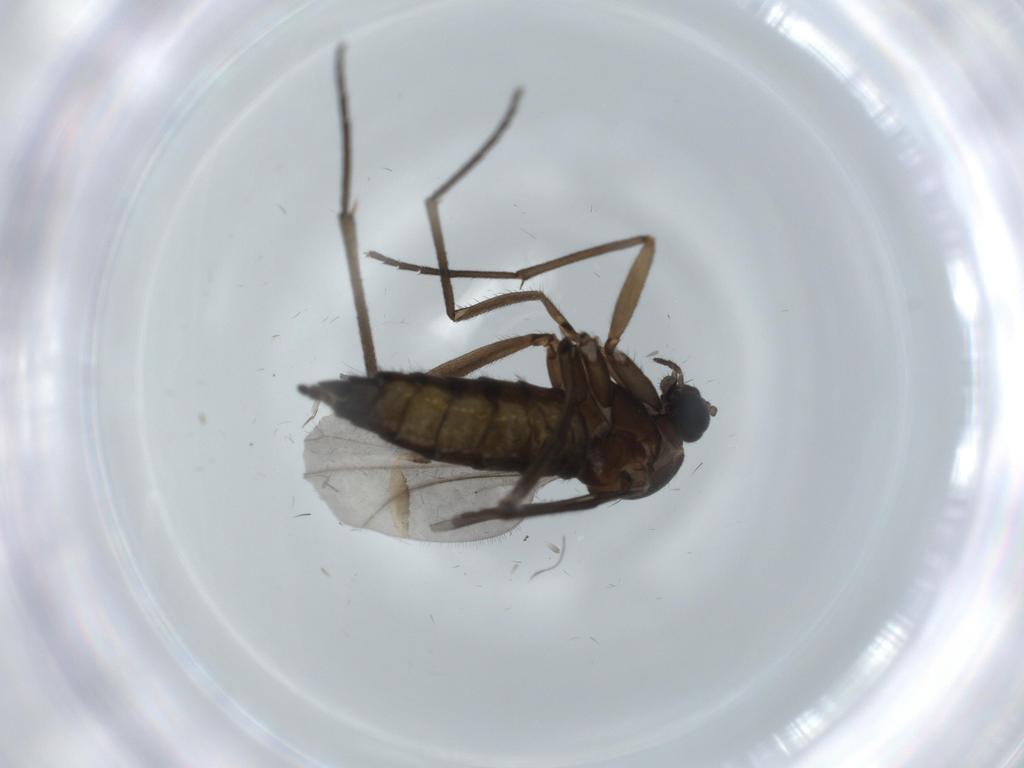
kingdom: Animalia
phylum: Arthropoda
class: Insecta
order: Diptera
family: Sciaridae
